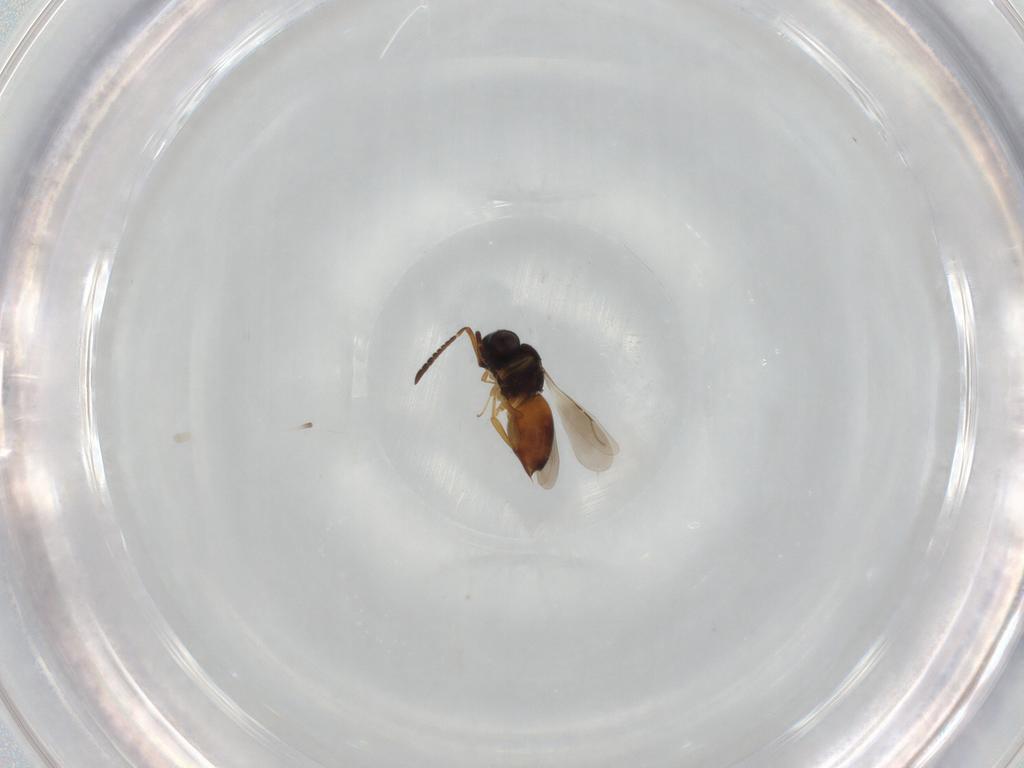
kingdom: Animalia
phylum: Arthropoda
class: Insecta
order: Hymenoptera
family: Ceraphronidae
